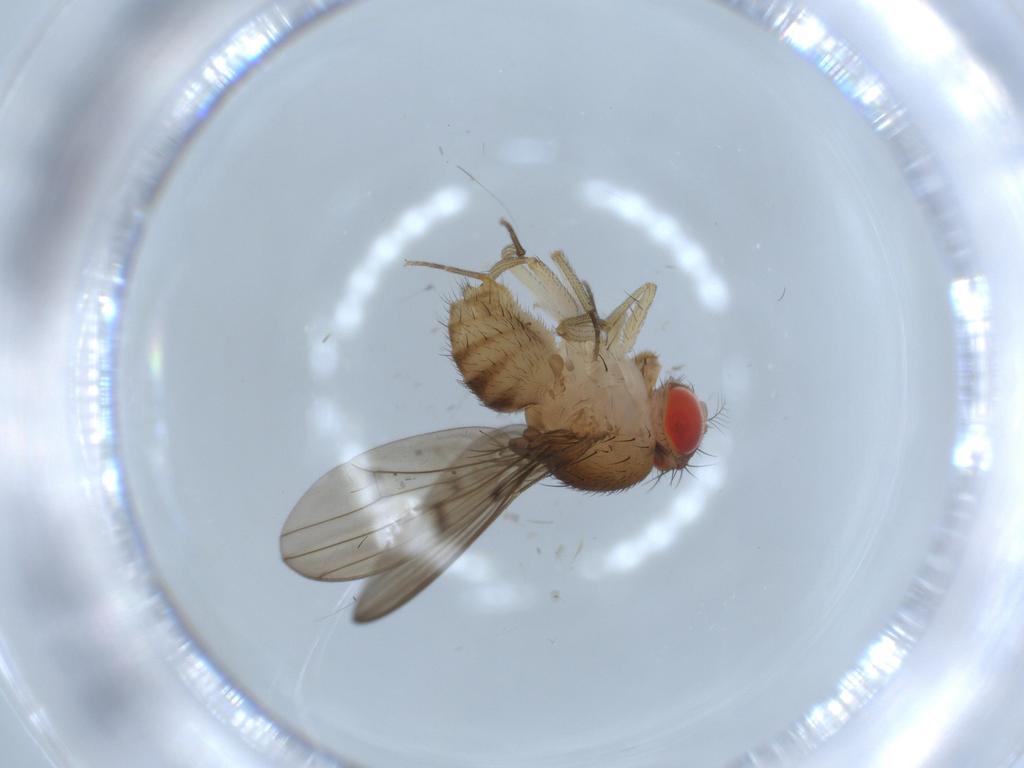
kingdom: Animalia
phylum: Arthropoda
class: Insecta
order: Diptera
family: Drosophilidae
